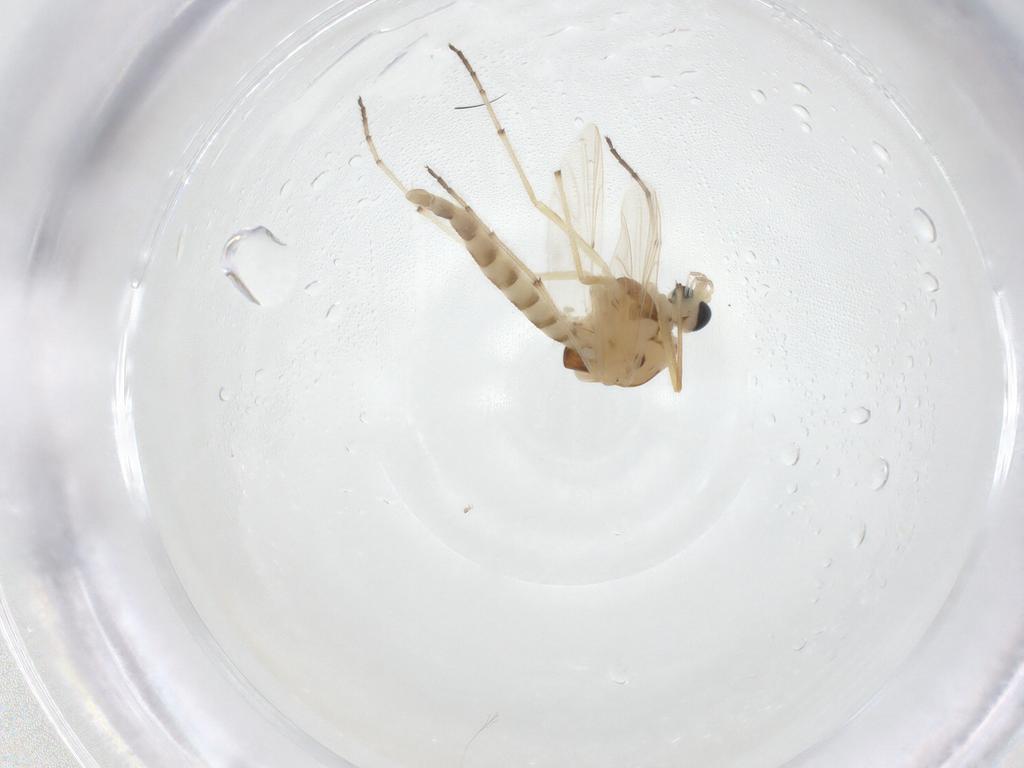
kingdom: Animalia
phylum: Arthropoda
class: Insecta
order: Diptera
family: Chironomidae
